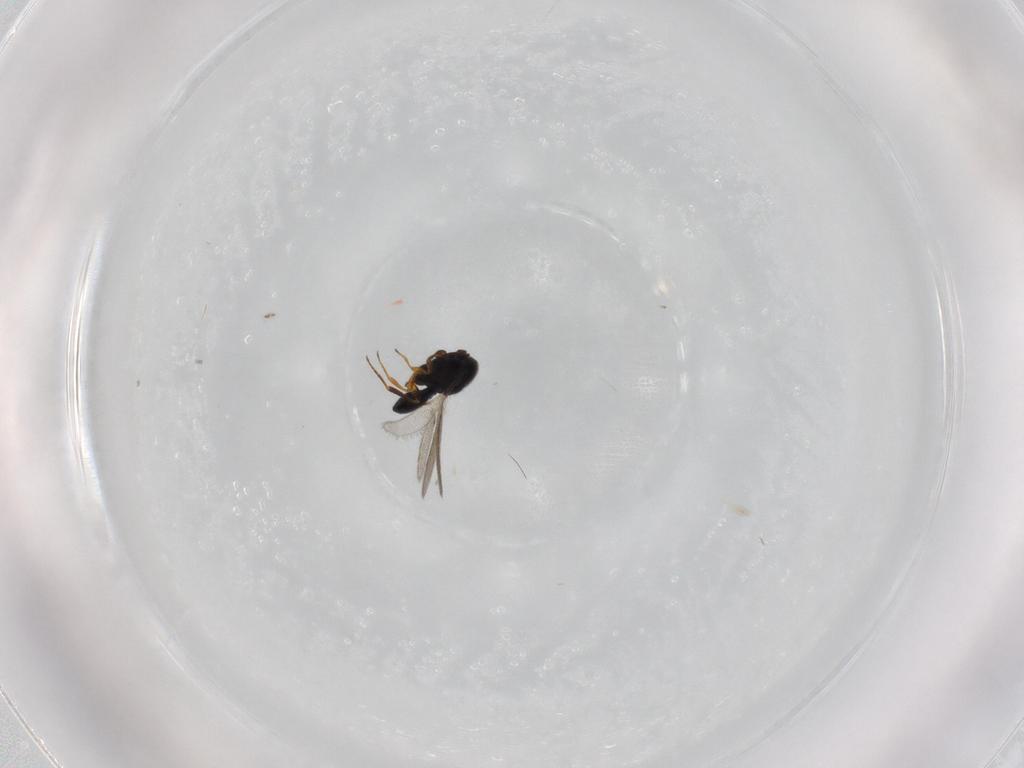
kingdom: Animalia
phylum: Arthropoda
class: Insecta
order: Hymenoptera
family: Scelionidae
